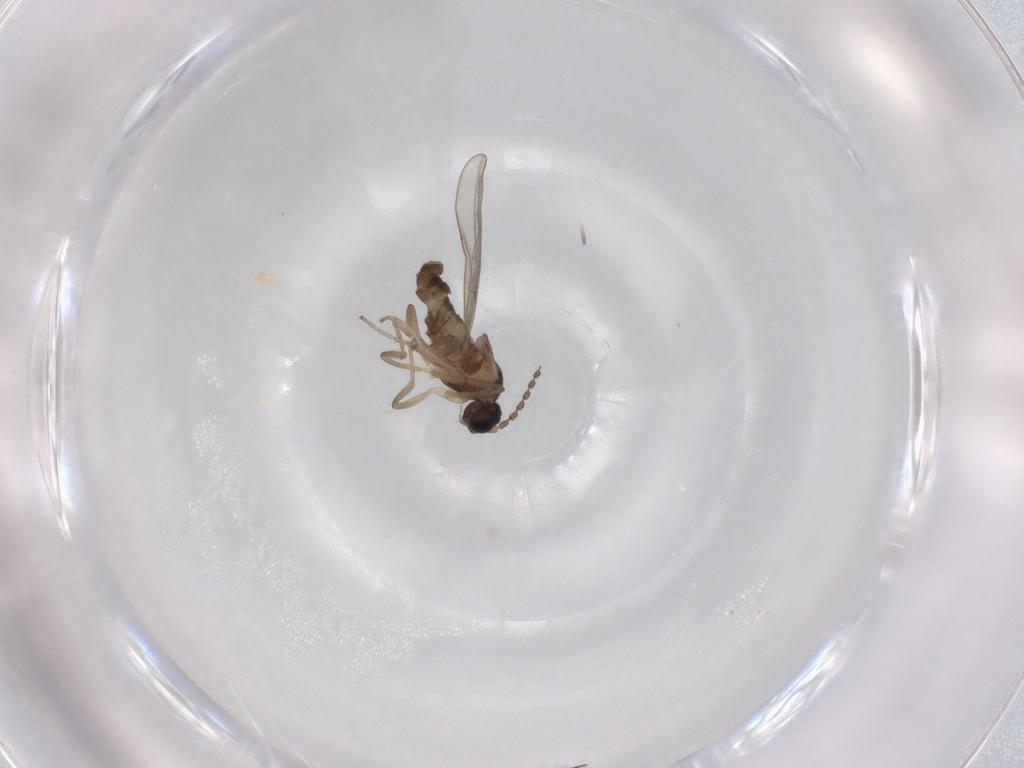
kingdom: Animalia
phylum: Arthropoda
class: Insecta
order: Diptera
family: Cecidomyiidae
